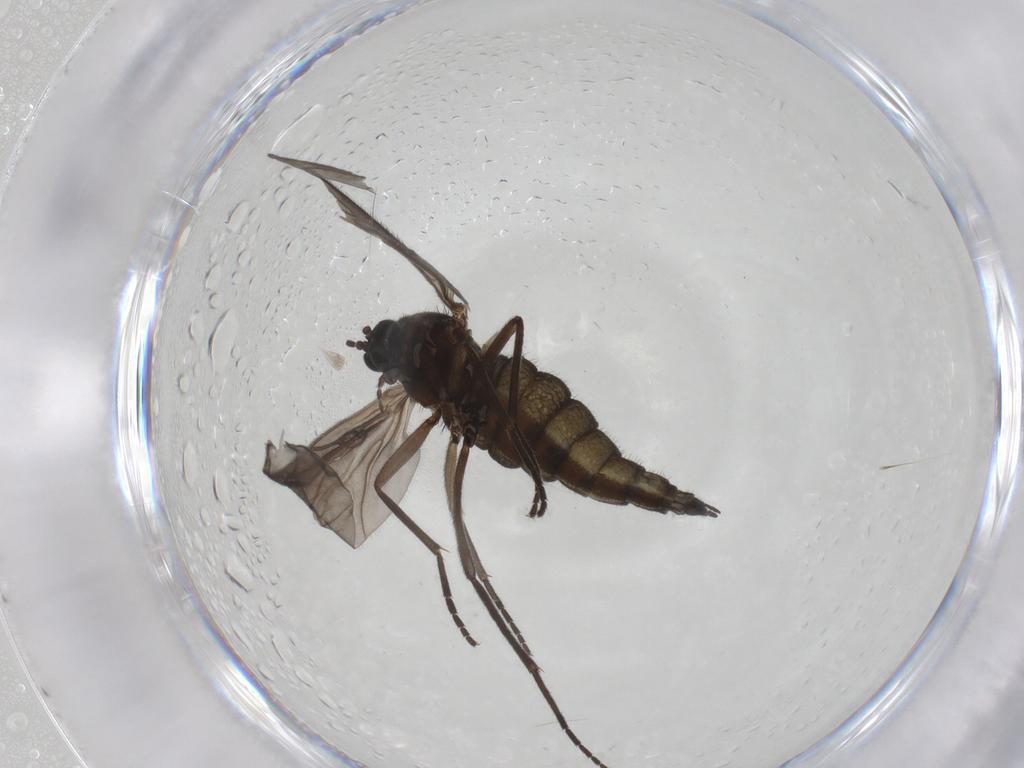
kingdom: Animalia
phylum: Arthropoda
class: Insecta
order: Diptera
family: Sciaridae
